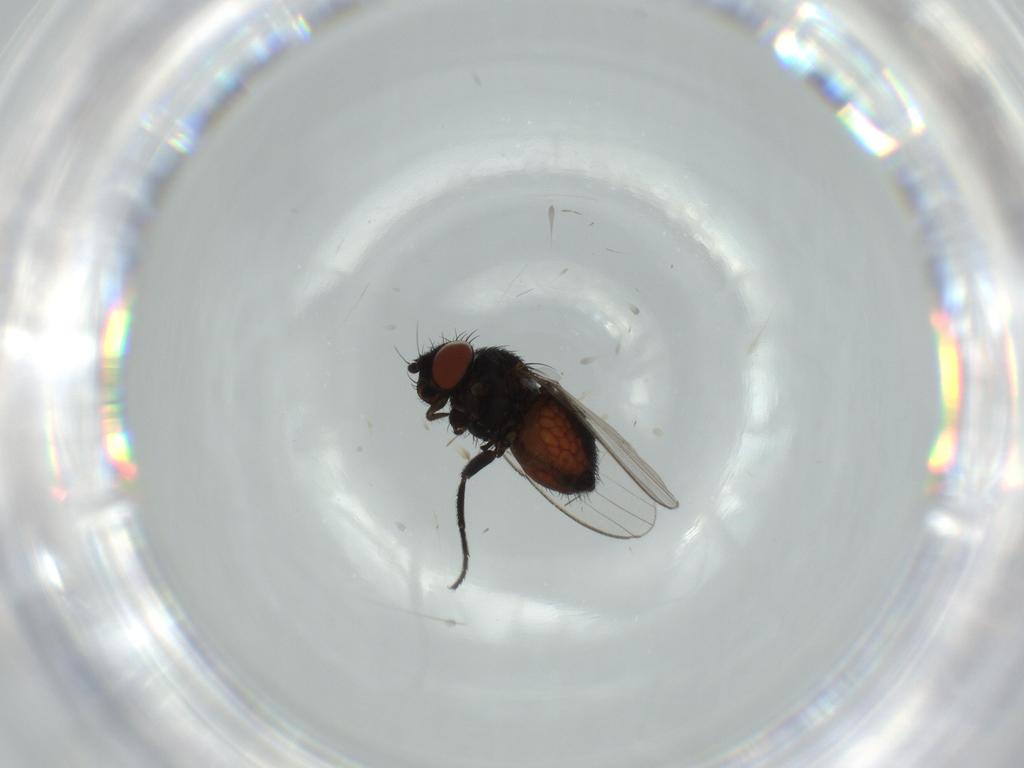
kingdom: Animalia
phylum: Arthropoda
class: Insecta
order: Diptera
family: Milichiidae
